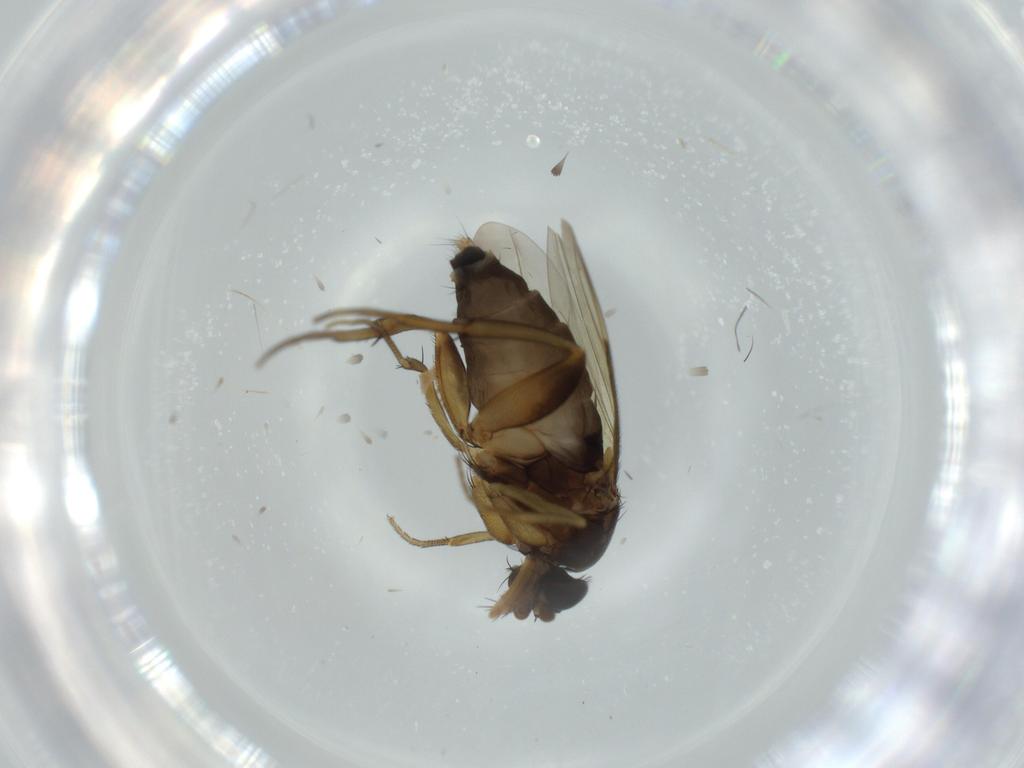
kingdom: Animalia
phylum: Arthropoda
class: Insecta
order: Diptera
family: Phoridae
